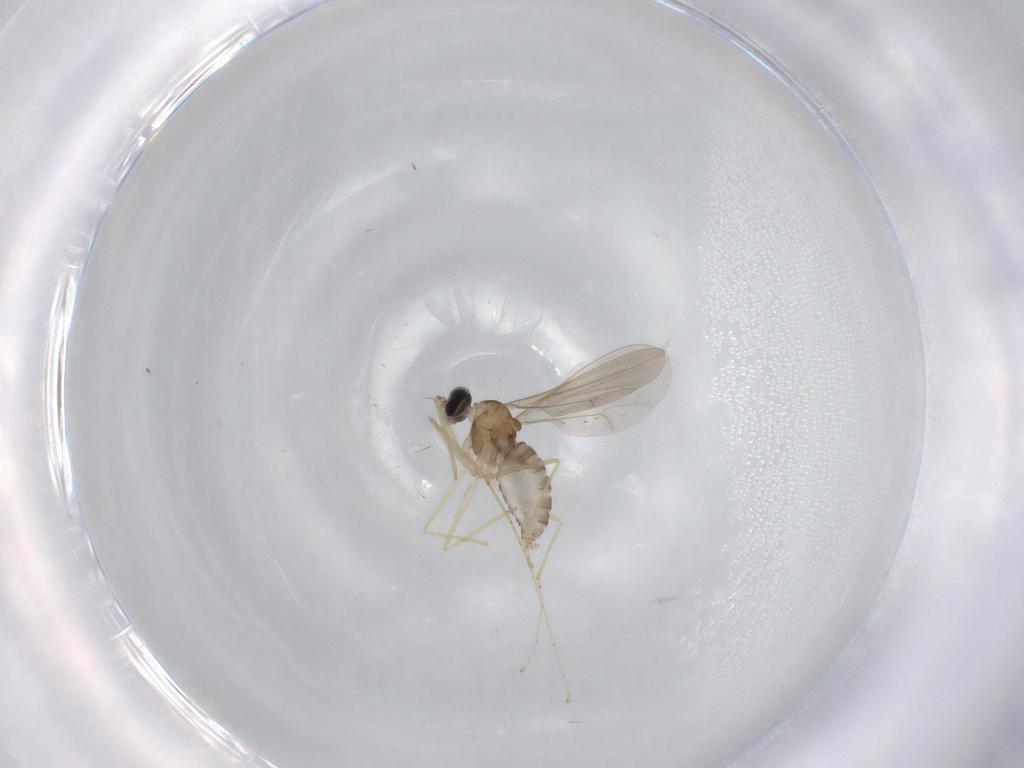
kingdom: Animalia
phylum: Arthropoda
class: Insecta
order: Diptera
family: Cecidomyiidae
